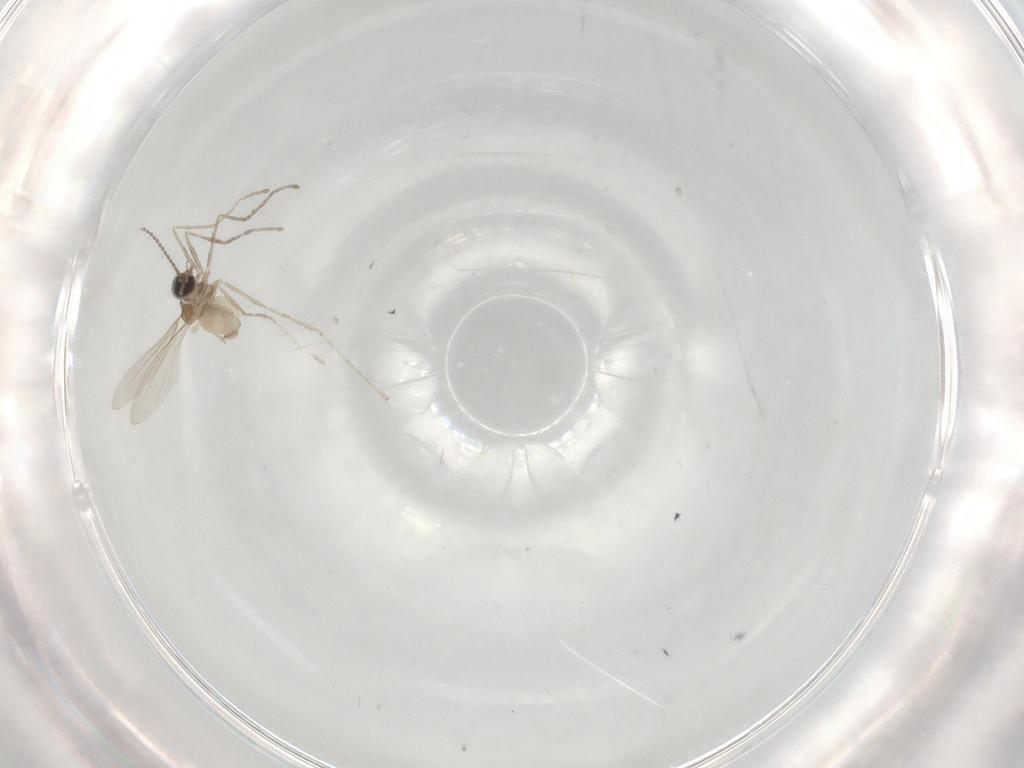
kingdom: Animalia
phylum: Arthropoda
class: Insecta
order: Diptera
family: Cecidomyiidae
